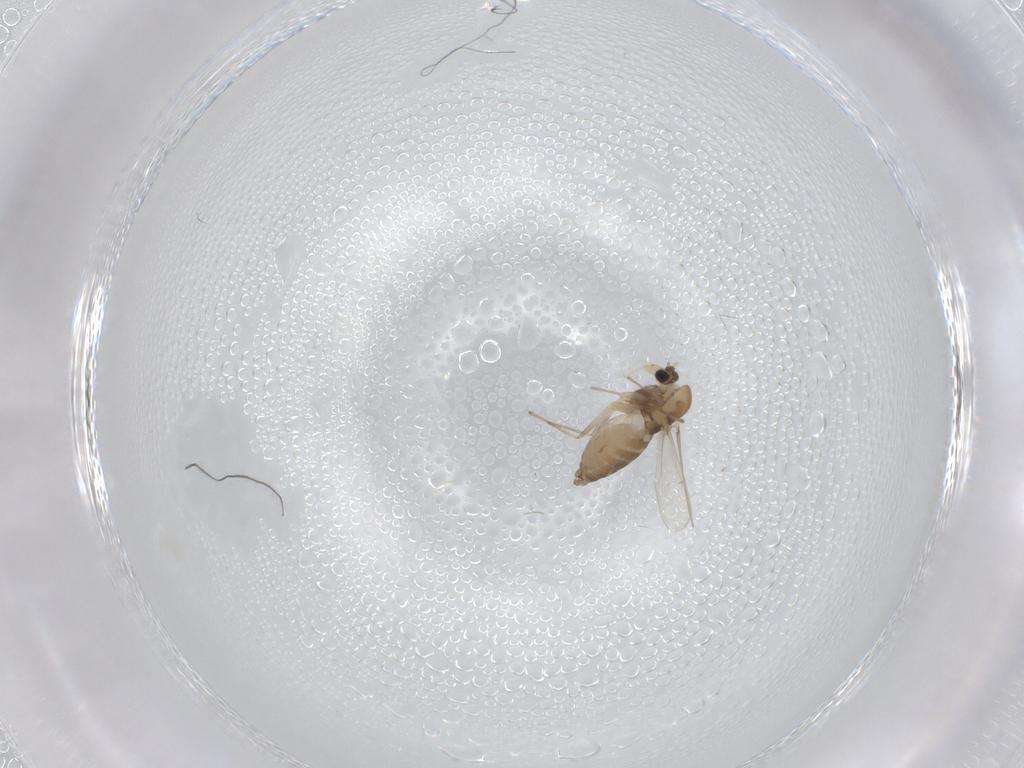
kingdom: Animalia
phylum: Arthropoda
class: Insecta
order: Diptera
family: Chironomidae
